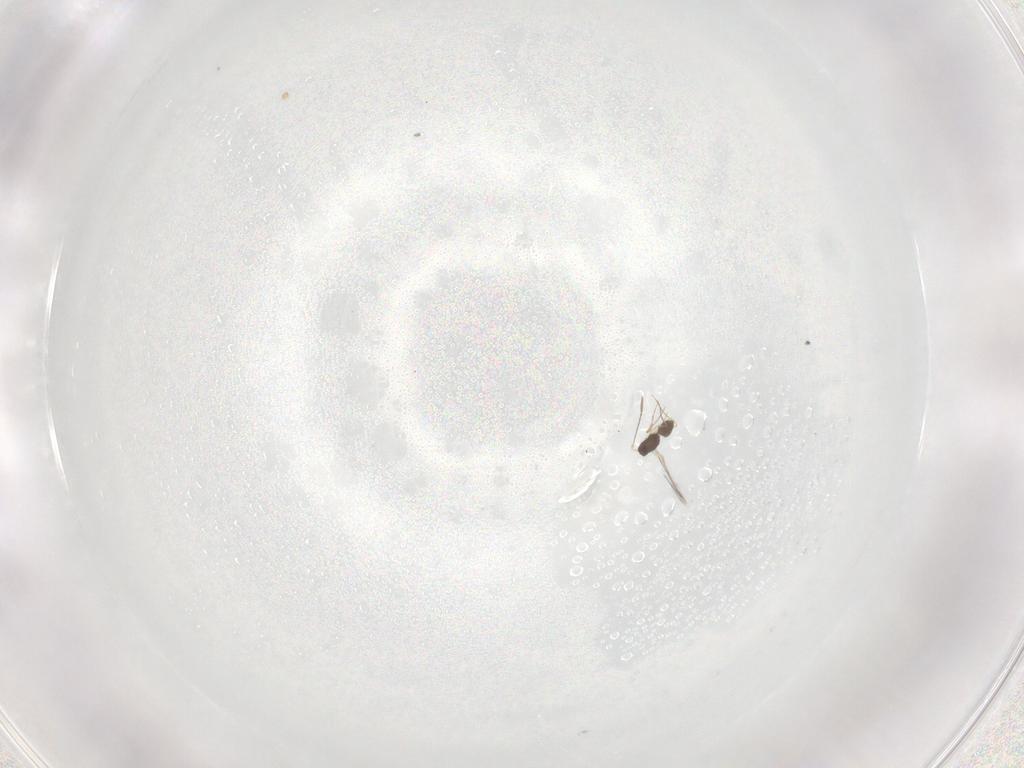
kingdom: Animalia
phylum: Arthropoda
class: Insecta
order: Hymenoptera
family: Mymaridae
